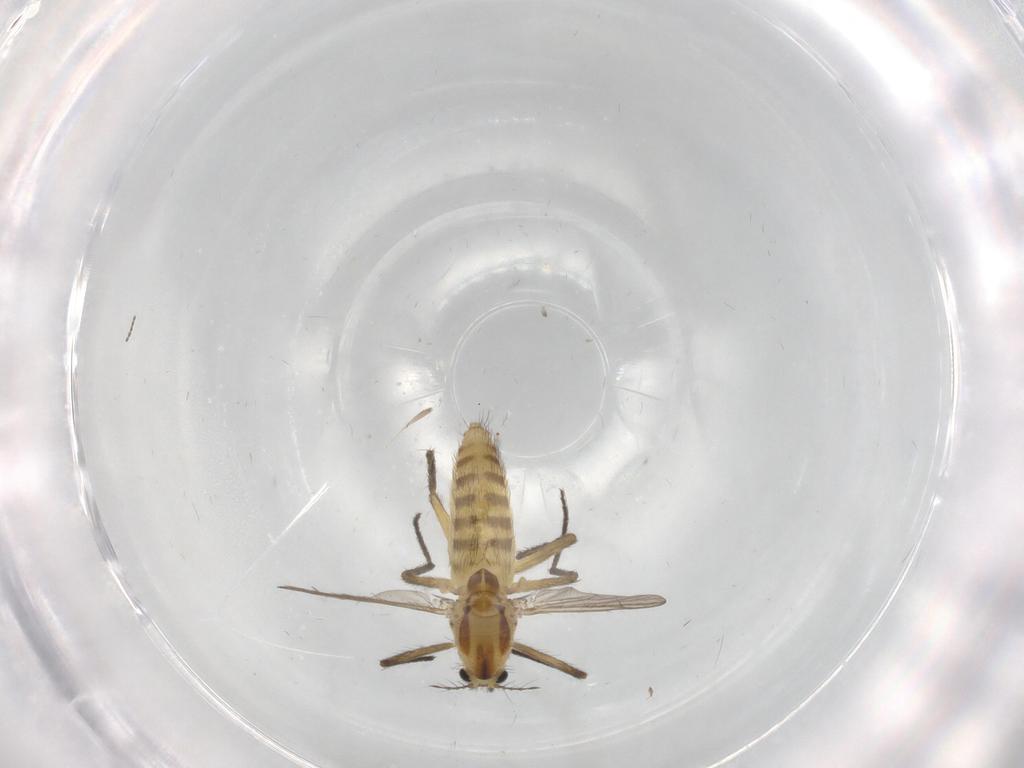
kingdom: Animalia
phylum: Arthropoda
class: Insecta
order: Diptera
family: Chironomidae
